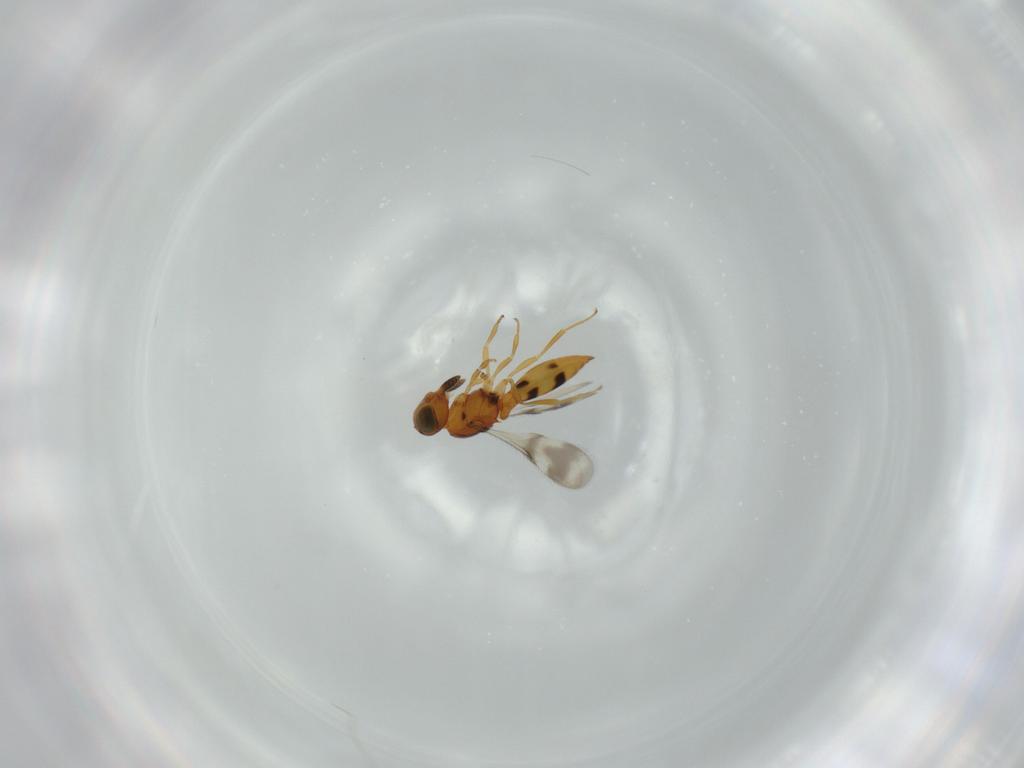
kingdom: Animalia
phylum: Arthropoda
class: Insecta
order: Hymenoptera
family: Scelionidae
